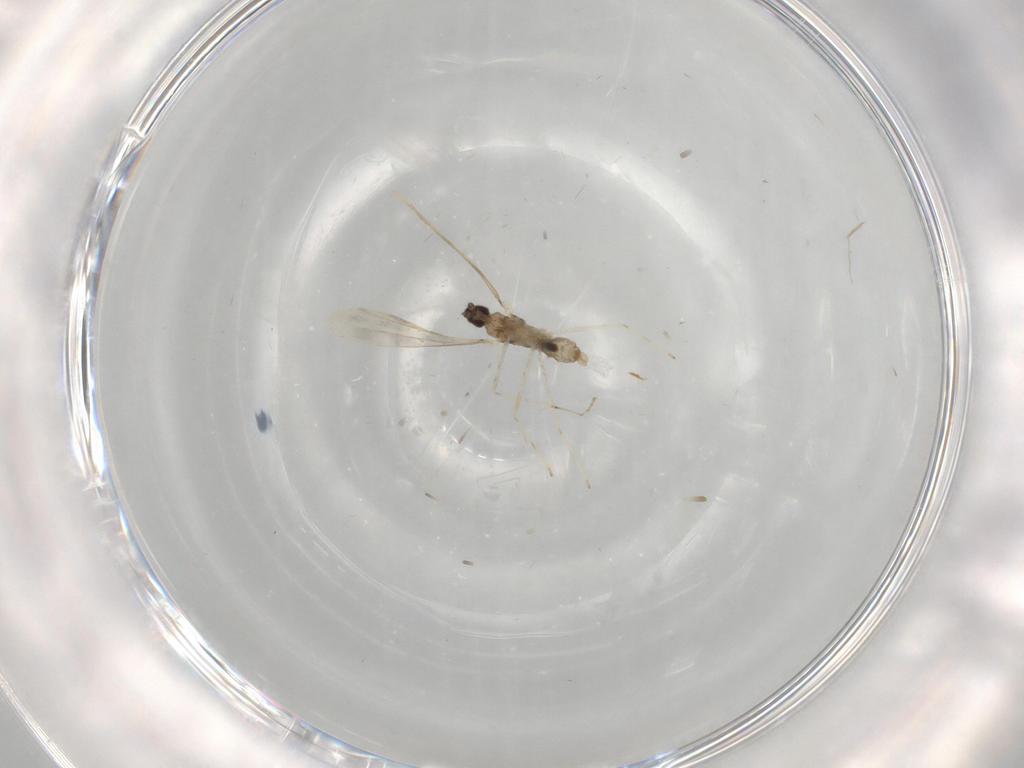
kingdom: Animalia
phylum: Arthropoda
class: Insecta
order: Diptera
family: Cecidomyiidae
